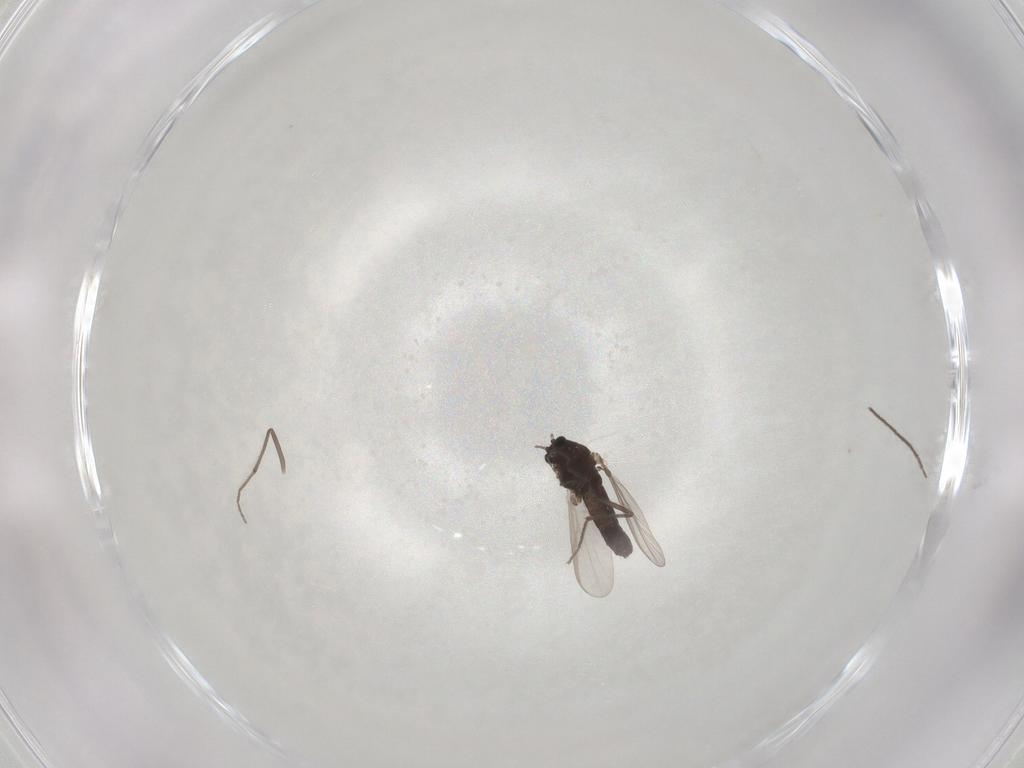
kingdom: Animalia
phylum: Arthropoda
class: Insecta
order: Diptera
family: Chironomidae
